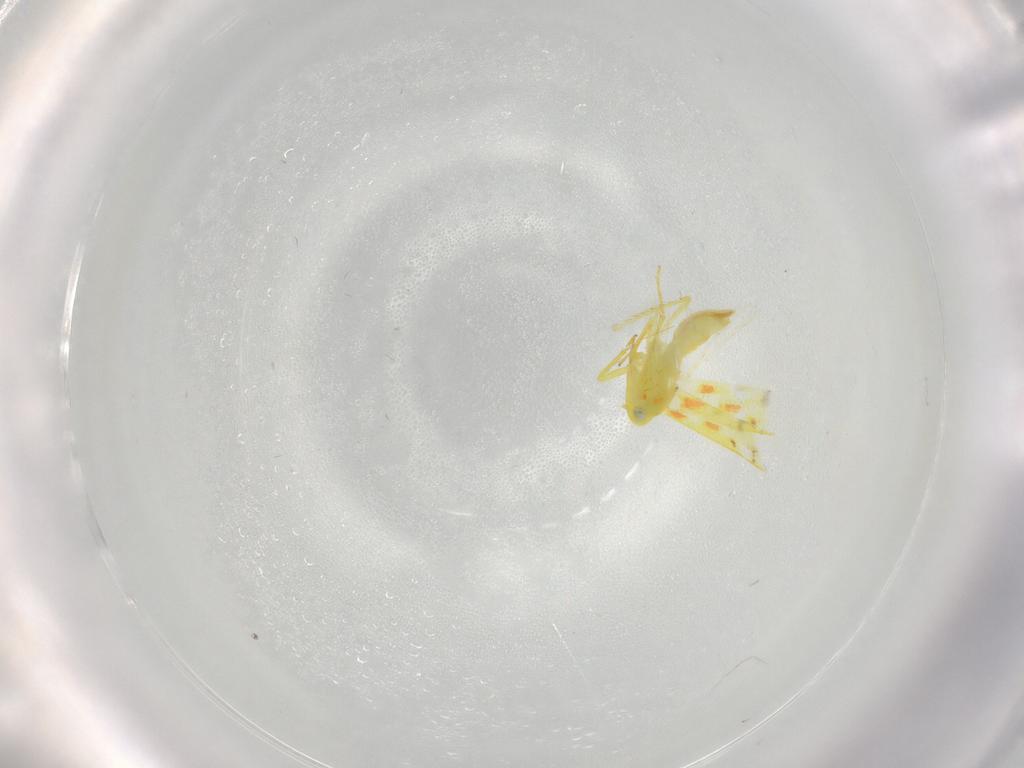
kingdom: Animalia
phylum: Arthropoda
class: Insecta
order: Hemiptera
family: Cicadellidae
